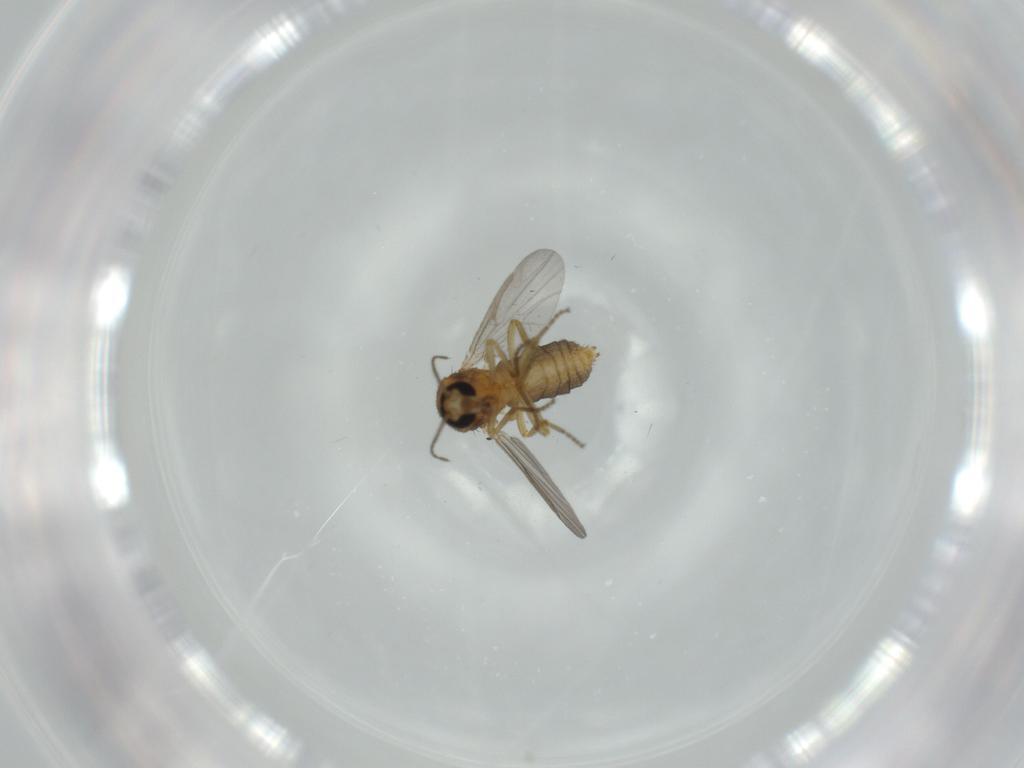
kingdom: Animalia
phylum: Arthropoda
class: Insecta
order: Diptera
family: Ceratopogonidae
